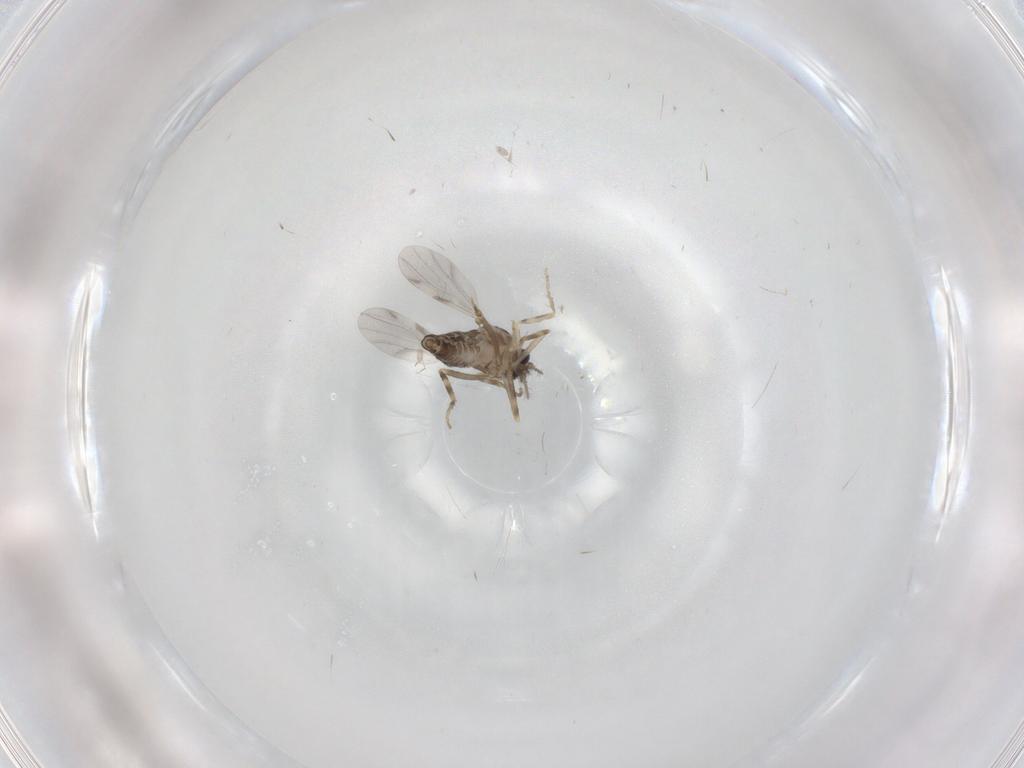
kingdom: Animalia
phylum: Arthropoda
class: Insecta
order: Diptera
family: Ceratopogonidae
